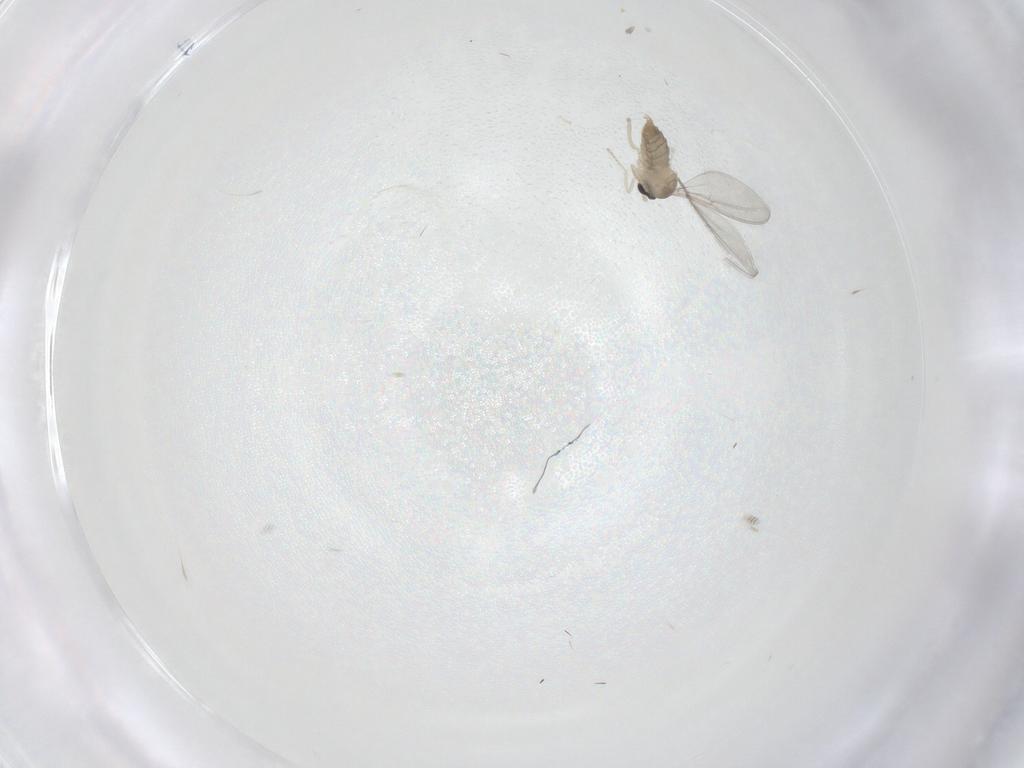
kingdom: Animalia
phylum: Arthropoda
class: Insecta
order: Diptera
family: Cecidomyiidae
